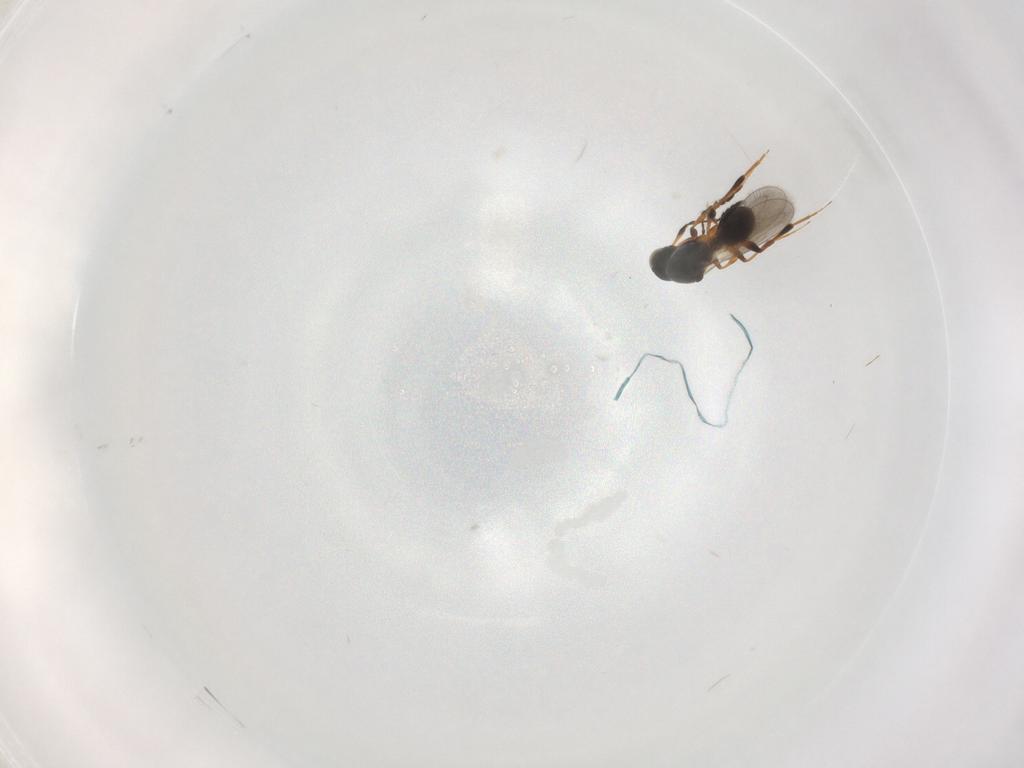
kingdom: Animalia
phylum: Arthropoda
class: Insecta
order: Hymenoptera
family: Platygastridae
